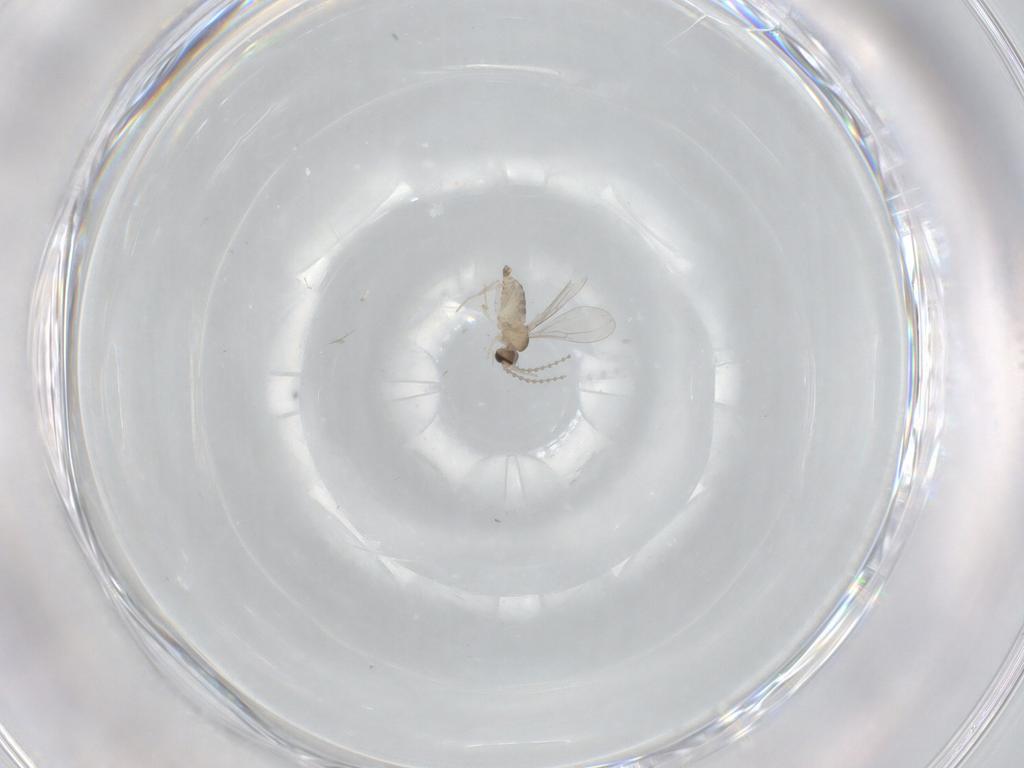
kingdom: Animalia
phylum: Arthropoda
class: Insecta
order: Diptera
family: Cecidomyiidae
